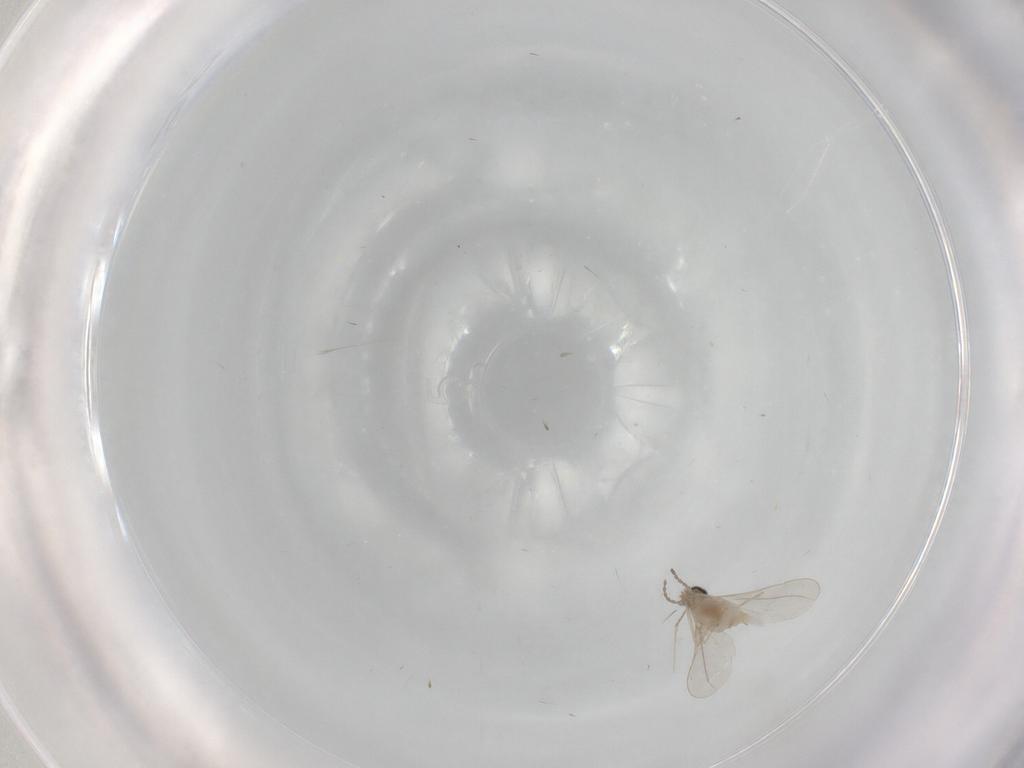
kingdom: Animalia
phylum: Arthropoda
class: Insecta
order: Diptera
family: Cecidomyiidae
